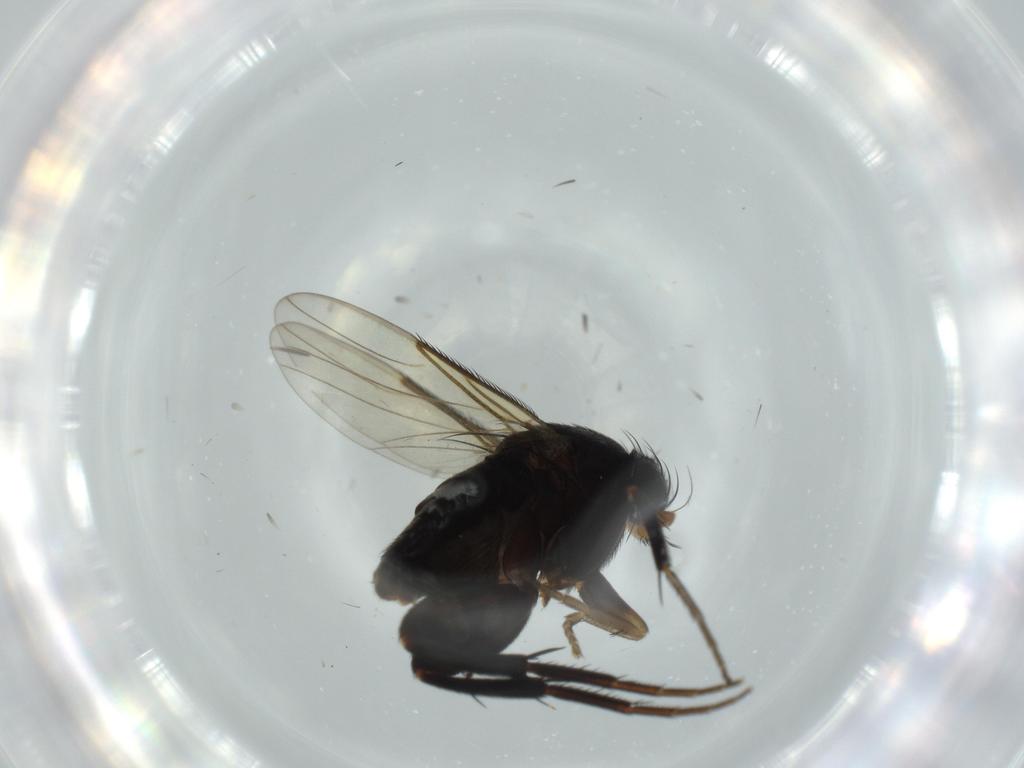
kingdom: Animalia
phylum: Arthropoda
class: Insecta
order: Diptera
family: Phoridae
